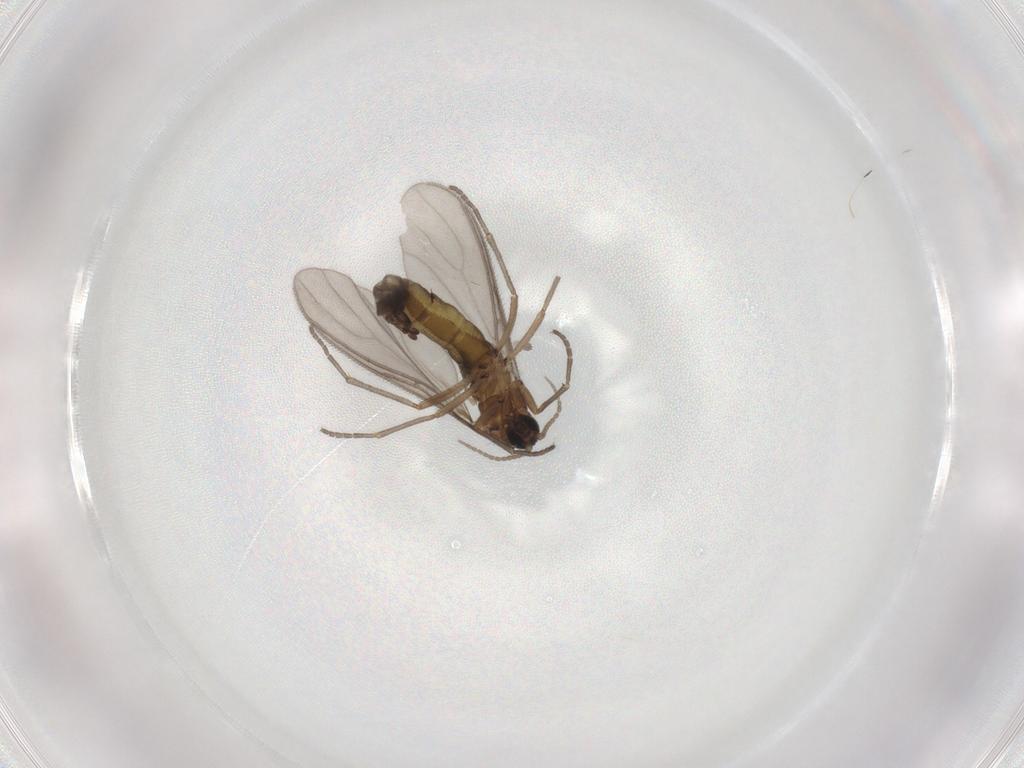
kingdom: Animalia
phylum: Arthropoda
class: Insecta
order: Diptera
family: Sciaridae
